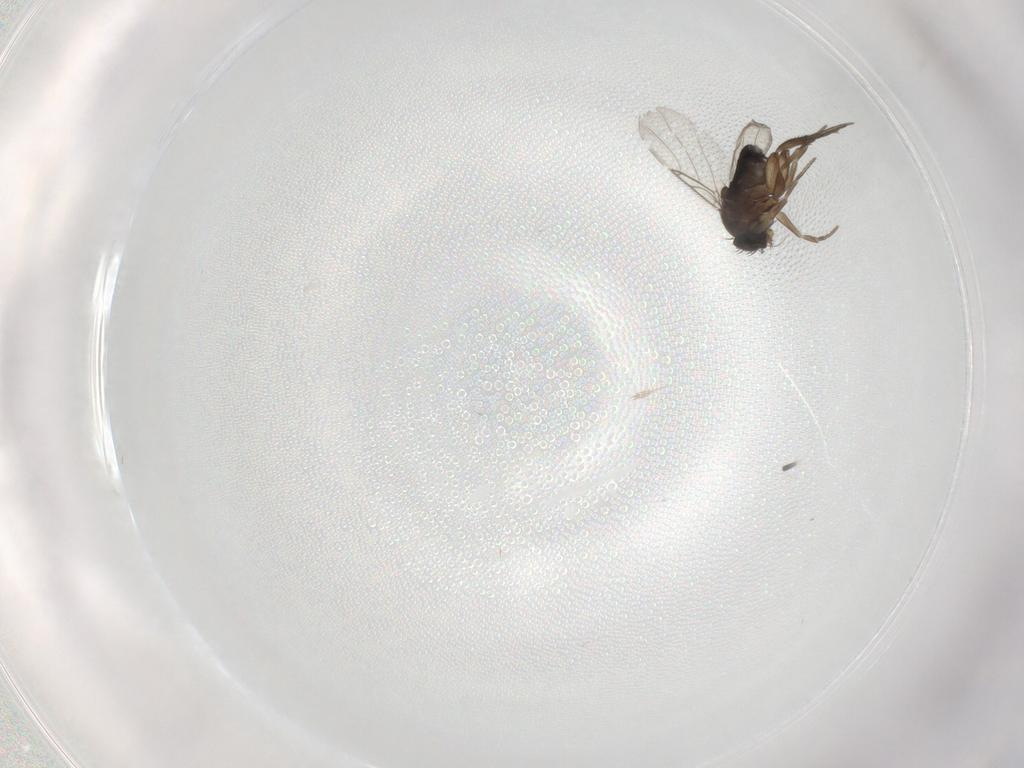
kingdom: Animalia
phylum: Arthropoda
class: Insecta
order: Diptera
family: Phoridae
